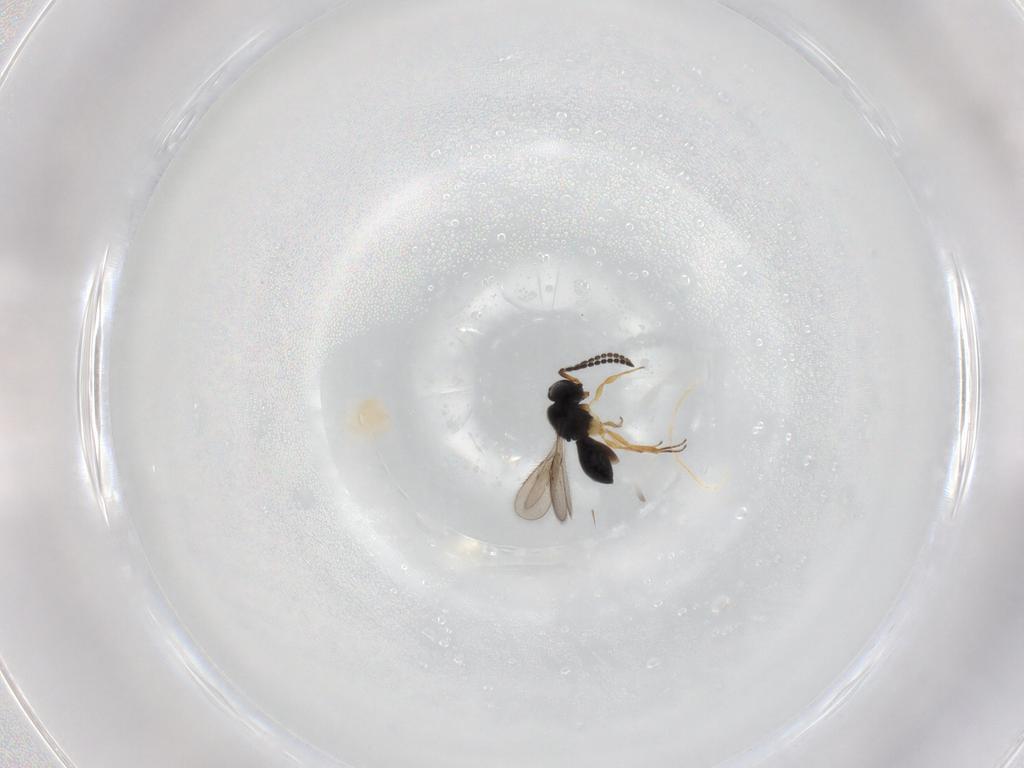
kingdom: Animalia
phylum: Arthropoda
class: Insecta
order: Hymenoptera
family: Scelionidae
